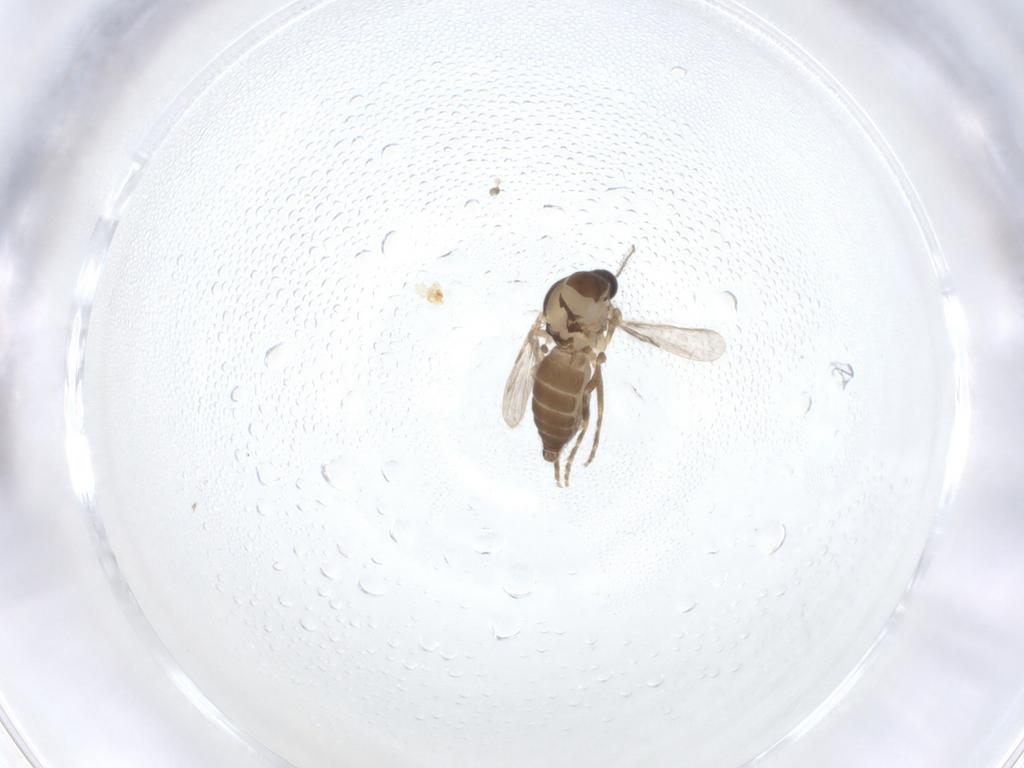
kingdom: Animalia
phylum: Arthropoda
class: Insecta
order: Diptera
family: Ceratopogonidae
